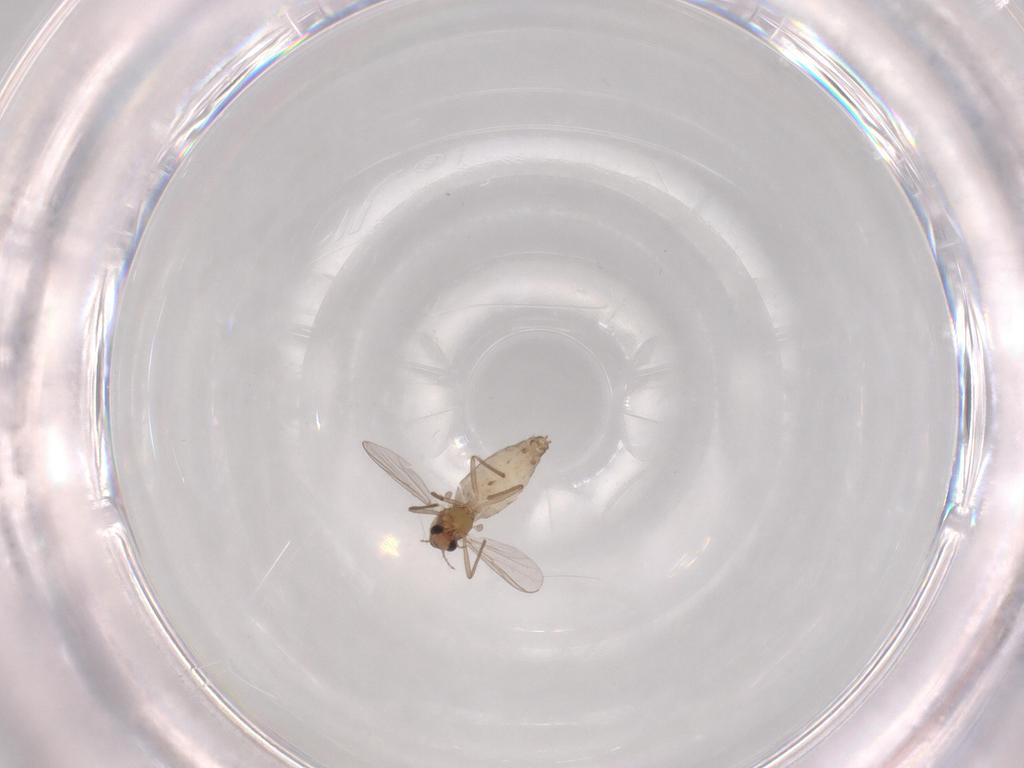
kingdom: Animalia
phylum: Arthropoda
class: Insecta
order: Diptera
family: Chironomidae
